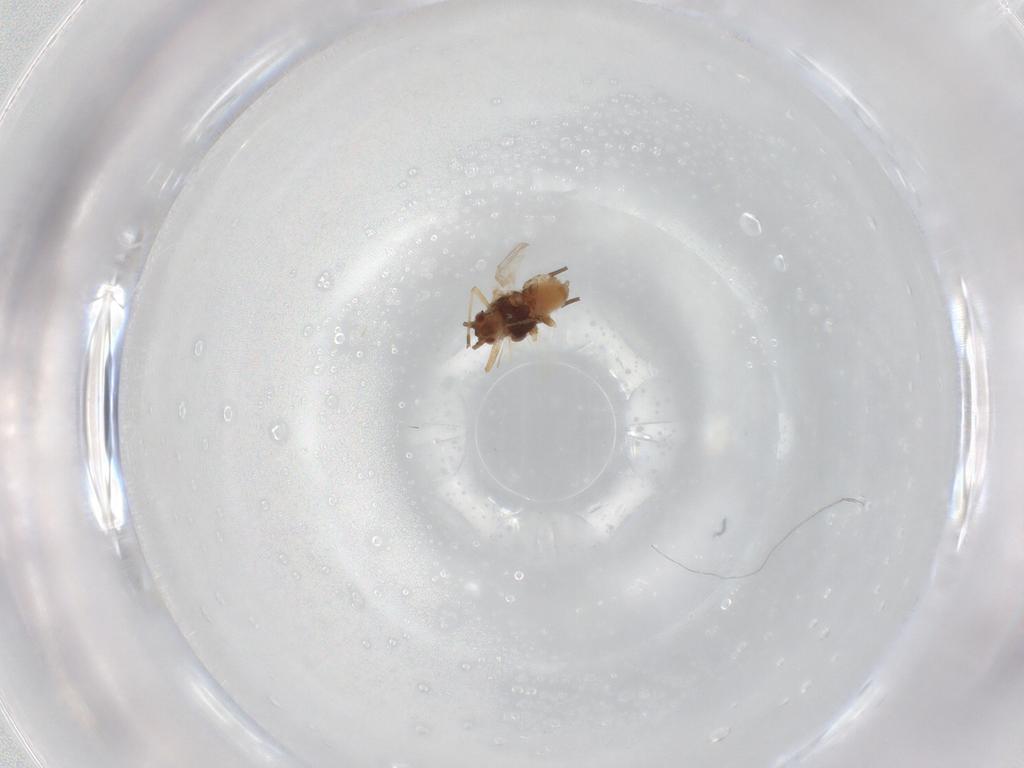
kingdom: Animalia
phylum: Arthropoda
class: Insecta
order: Hemiptera
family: Aphididae
